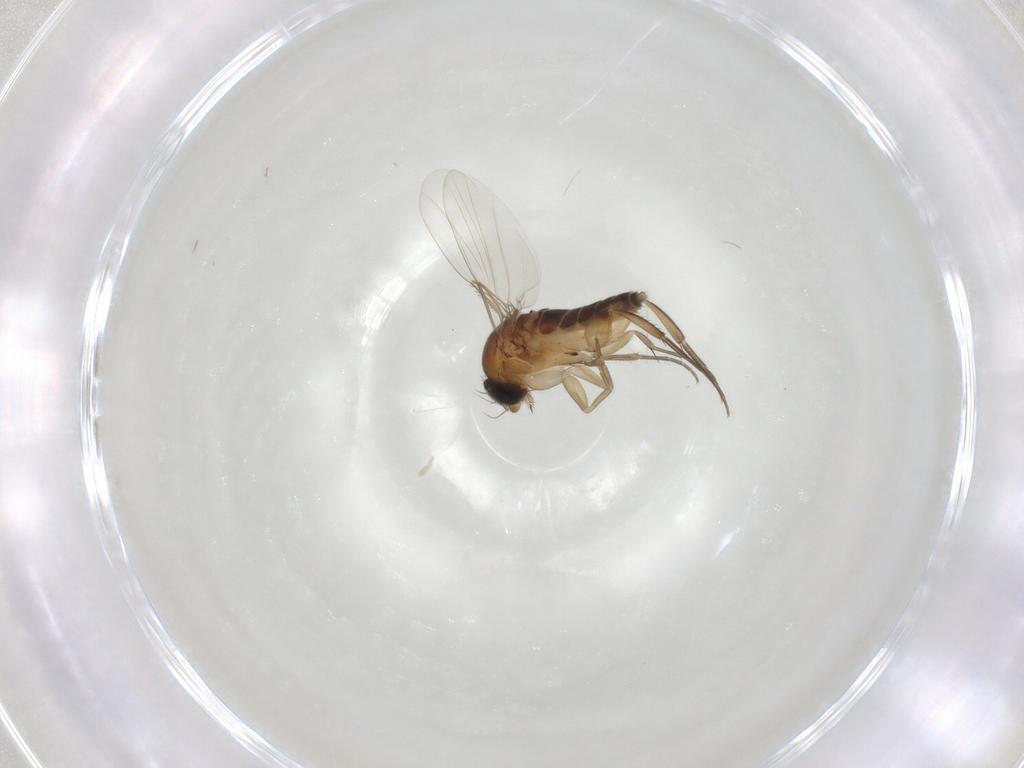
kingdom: Animalia
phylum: Arthropoda
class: Insecta
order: Diptera
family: Phoridae
